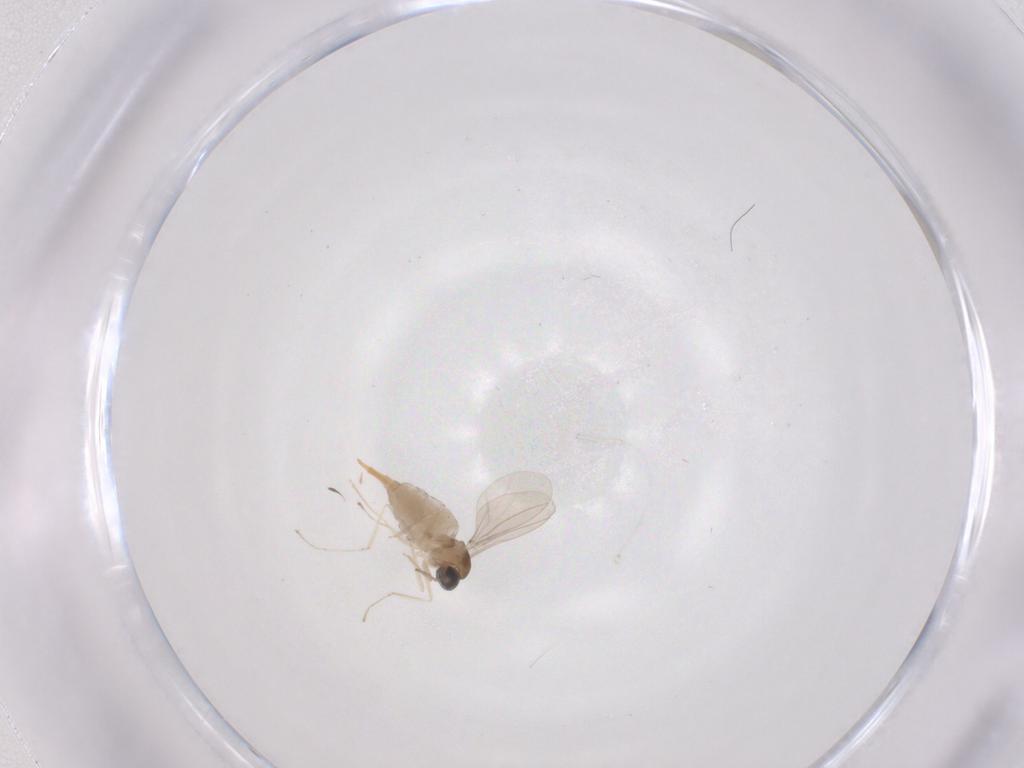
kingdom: Animalia
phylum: Arthropoda
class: Insecta
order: Diptera
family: Cecidomyiidae
